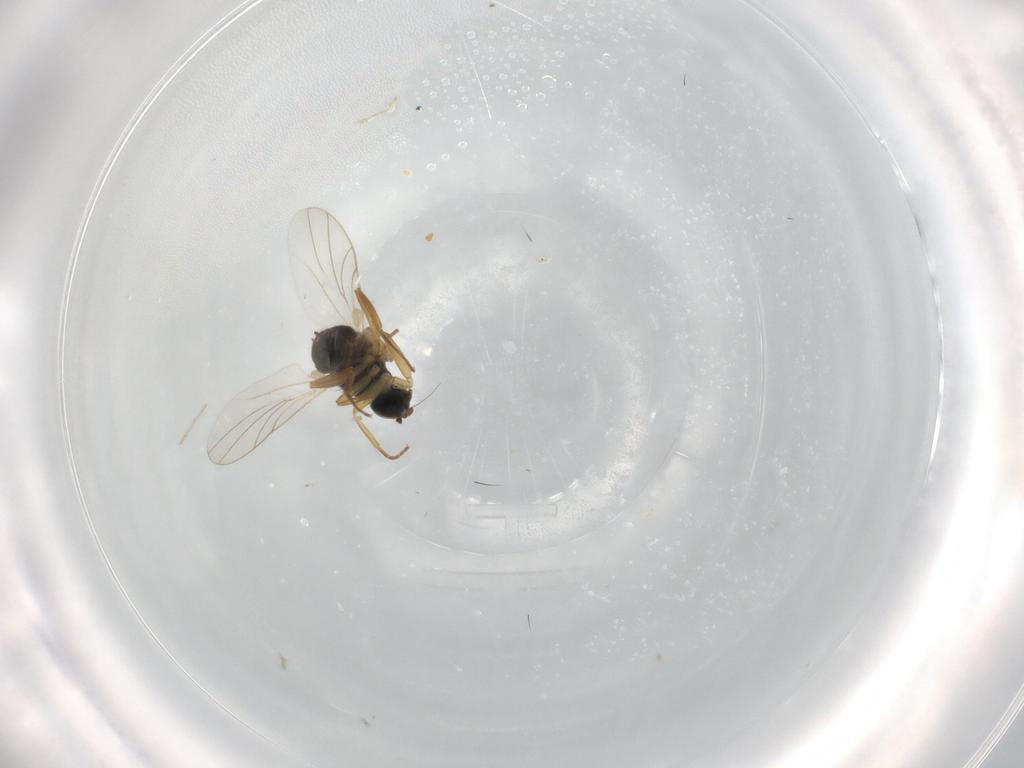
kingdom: Animalia
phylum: Arthropoda
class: Insecta
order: Diptera
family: Hybotidae
